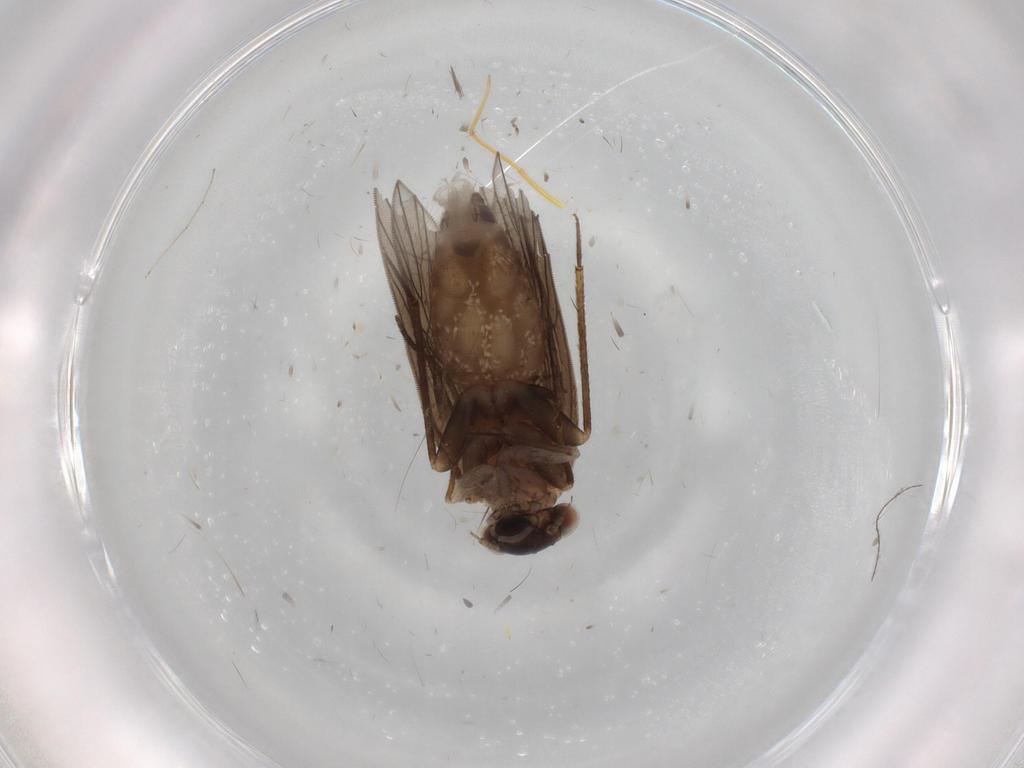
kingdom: Animalia
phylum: Arthropoda
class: Insecta
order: Psocodea
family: Lepidopsocidae
